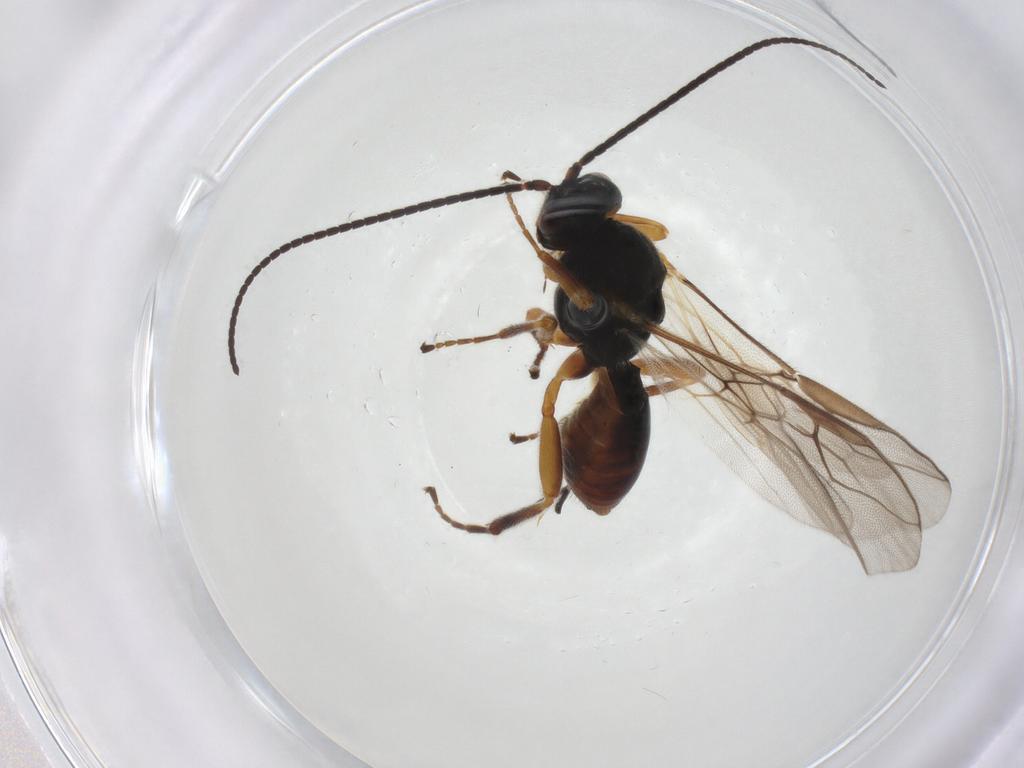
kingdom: Animalia
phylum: Arthropoda
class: Insecta
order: Hymenoptera
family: Braconidae
